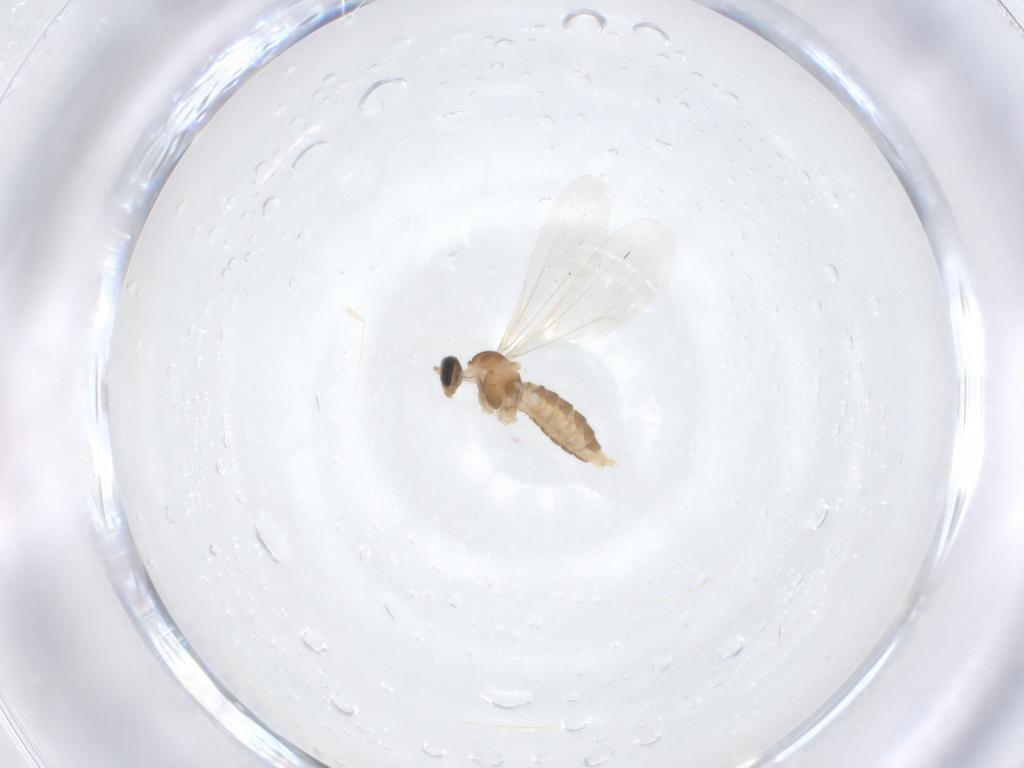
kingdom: Animalia
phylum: Arthropoda
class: Insecta
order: Diptera
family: Cecidomyiidae
